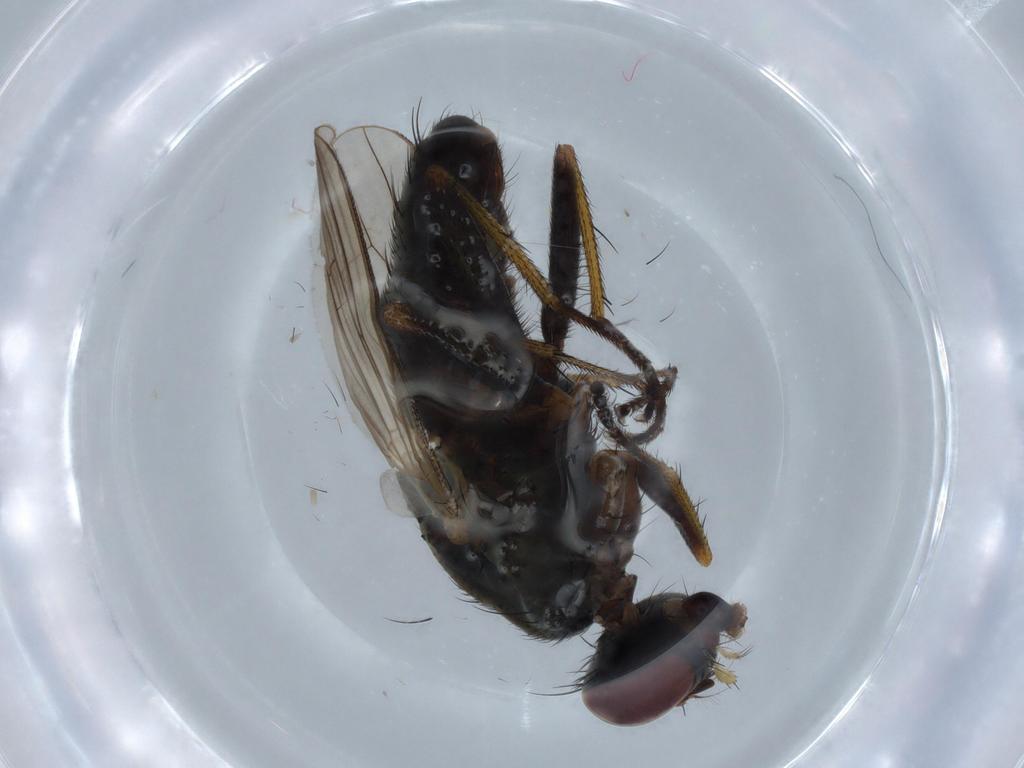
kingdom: Animalia
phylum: Arthropoda
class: Insecta
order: Diptera
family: Muscidae
